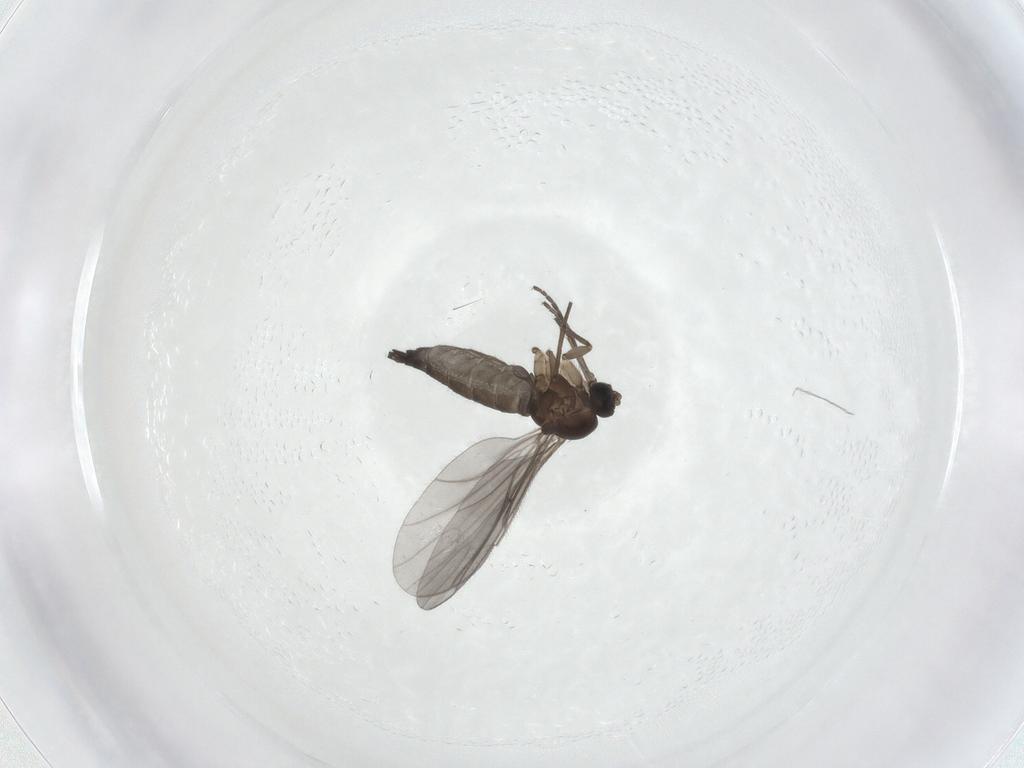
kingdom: Animalia
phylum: Arthropoda
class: Insecta
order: Diptera
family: Sciaridae
